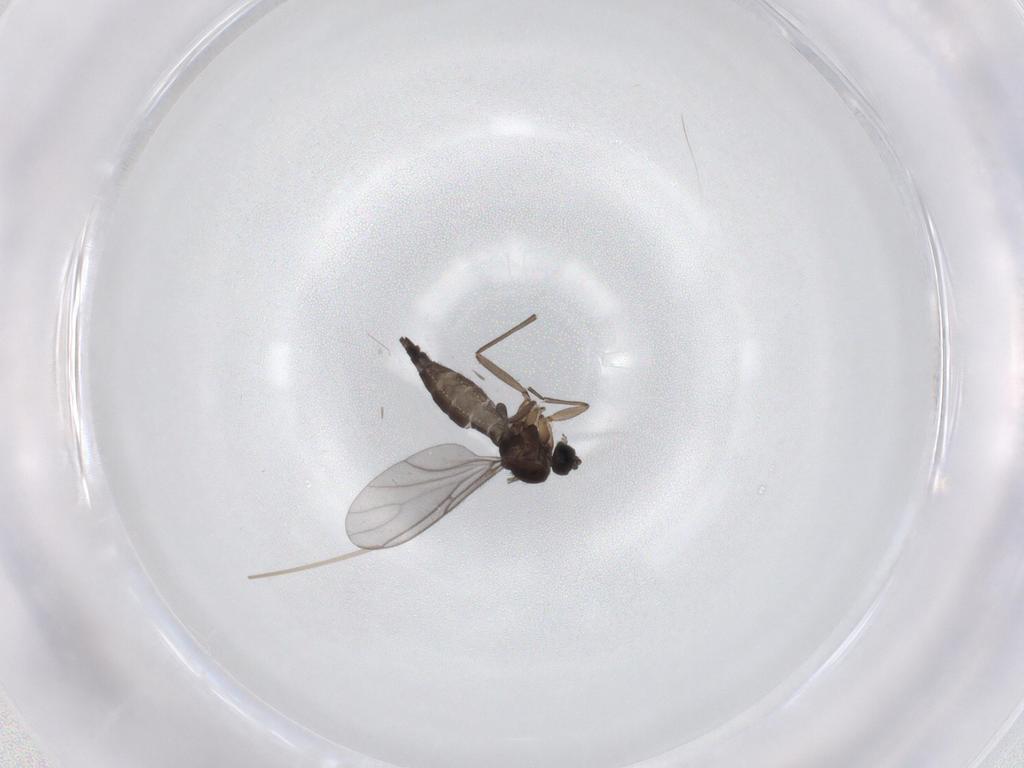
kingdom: Animalia
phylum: Arthropoda
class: Insecta
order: Diptera
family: Sciaridae
